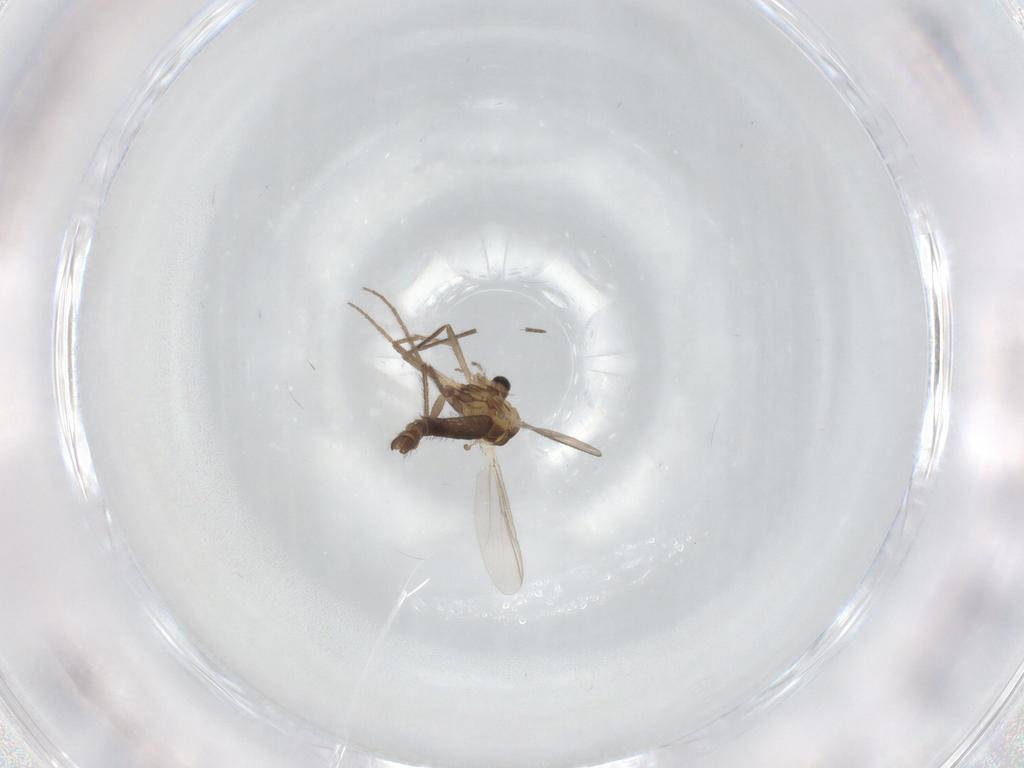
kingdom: Animalia
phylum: Arthropoda
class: Insecta
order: Diptera
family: Chironomidae
